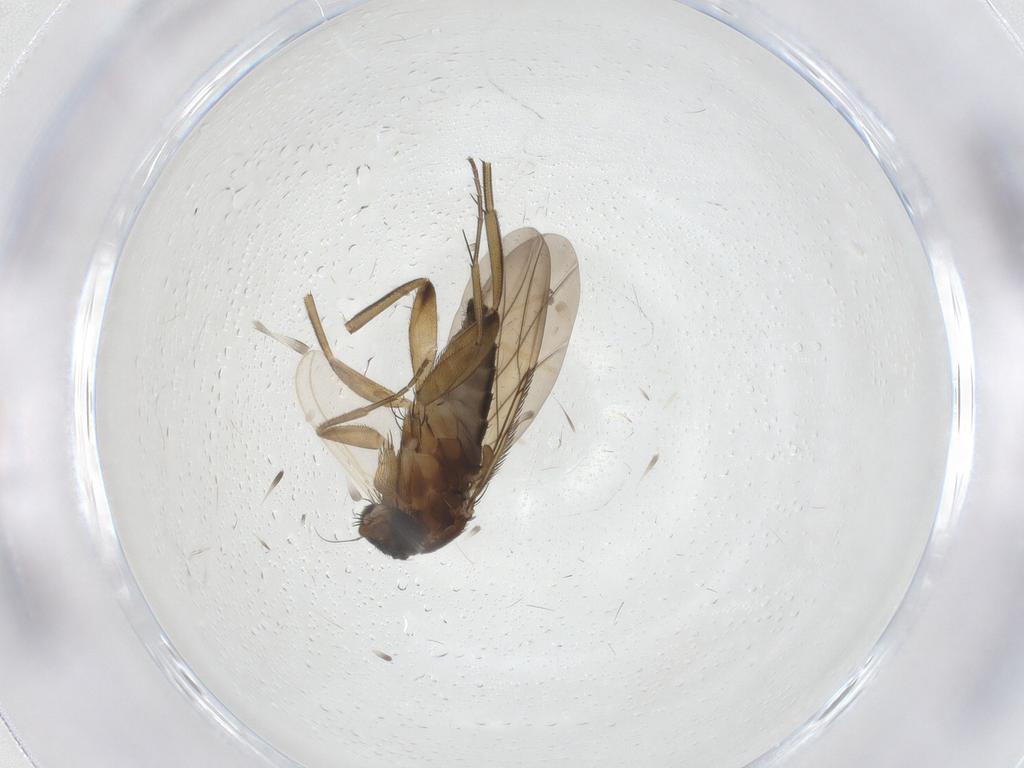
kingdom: Animalia
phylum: Arthropoda
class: Insecta
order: Diptera
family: Phoridae
